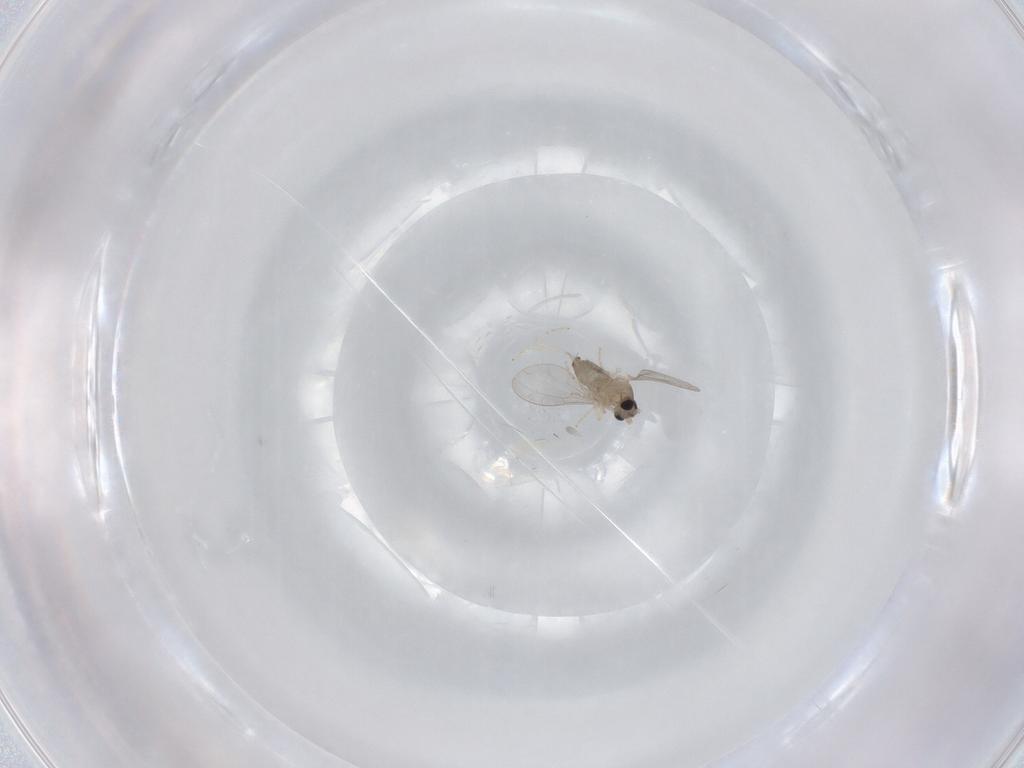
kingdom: Animalia
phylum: Arthropoda
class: Insecta
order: Diptera
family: Cecidomyiidae
